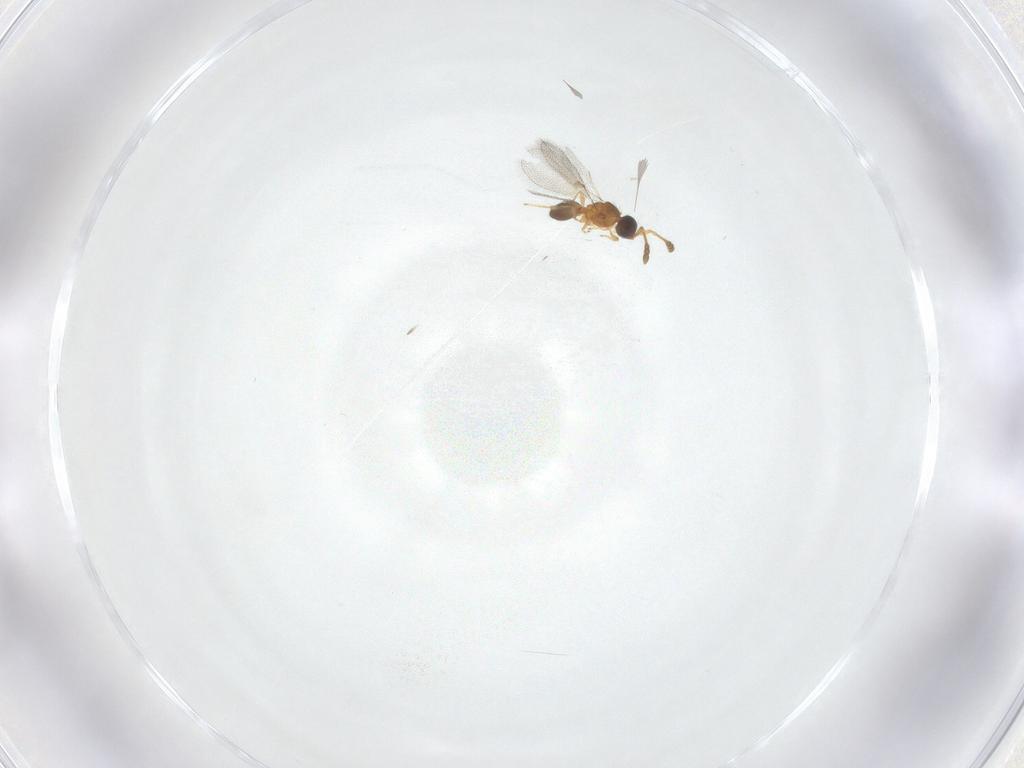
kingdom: Animalia
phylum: Arthropoda
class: Insecta
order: Hymenoptera
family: Diapriidae
